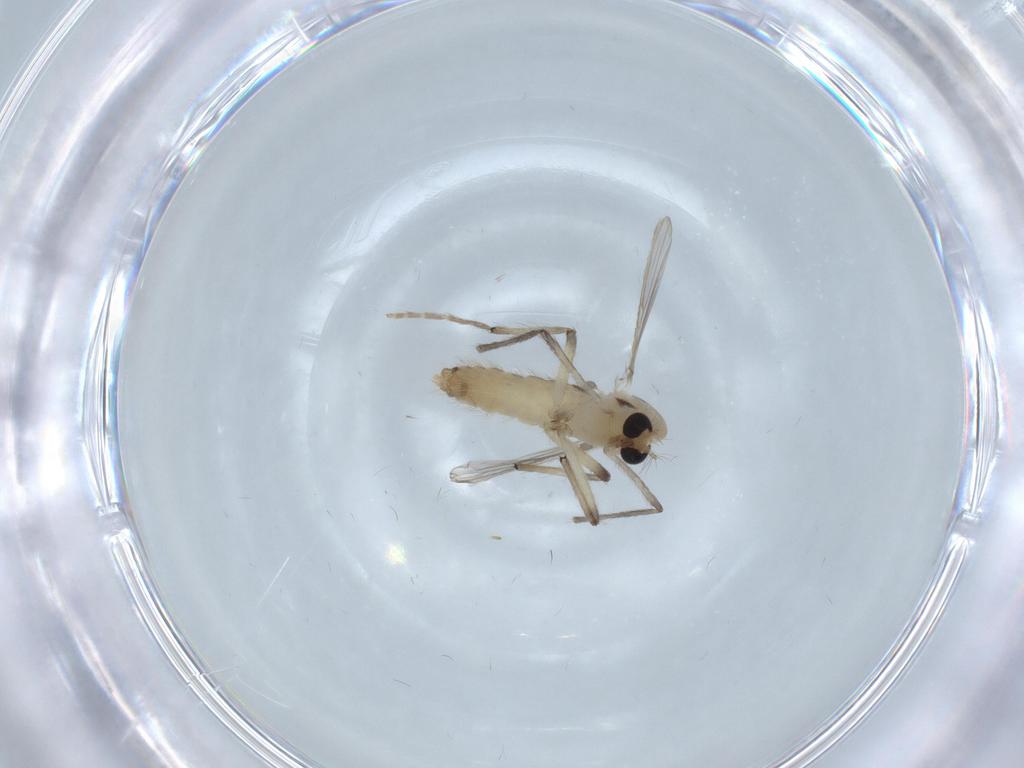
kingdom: Animalia
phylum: Arthropoda
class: Insecta
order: Diptera
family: Chironomidae
